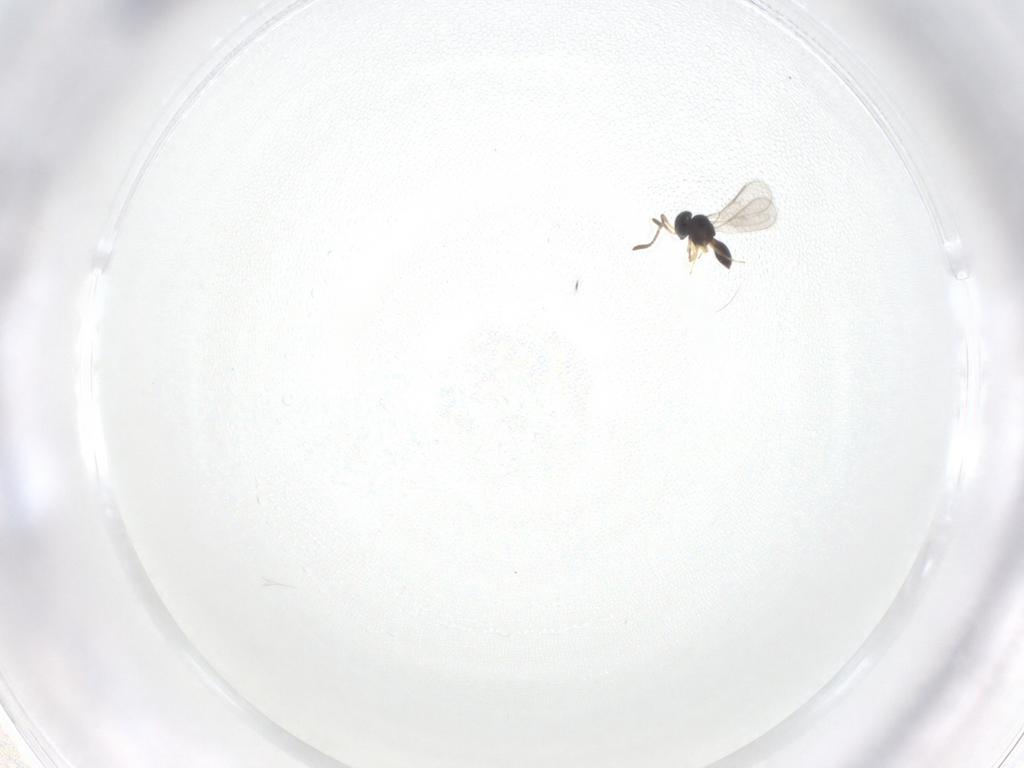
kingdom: Animalia
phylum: Arthropoda
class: Insecta
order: Hymenoptera
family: Scelionidae
